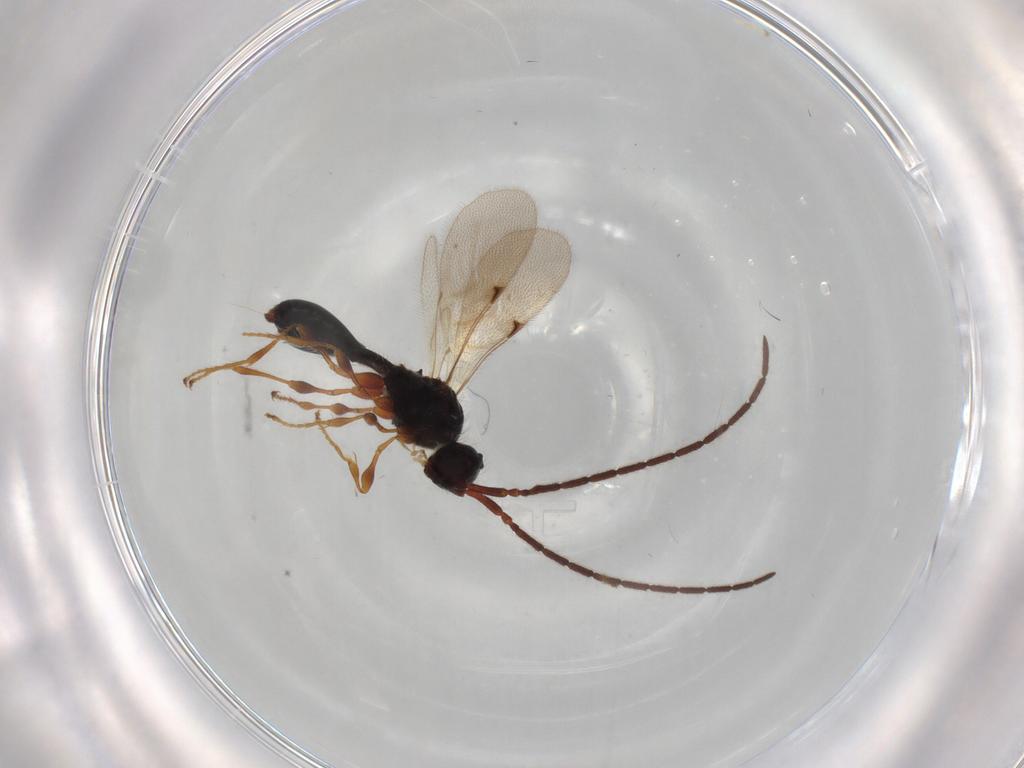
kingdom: Animalia
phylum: Arthropoda
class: Insecta
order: Hymenoptera
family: Diapriidae
